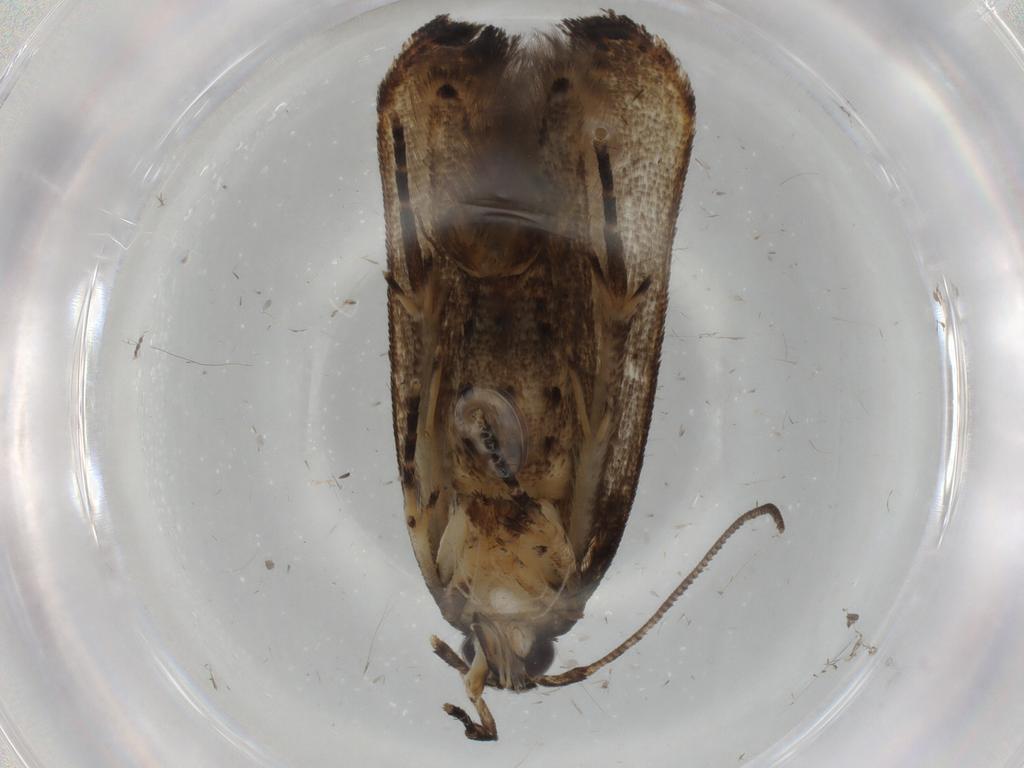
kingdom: Animalia
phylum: Arthropoda
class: Insecta
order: Lepidoptera
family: Cosmopterigidae
